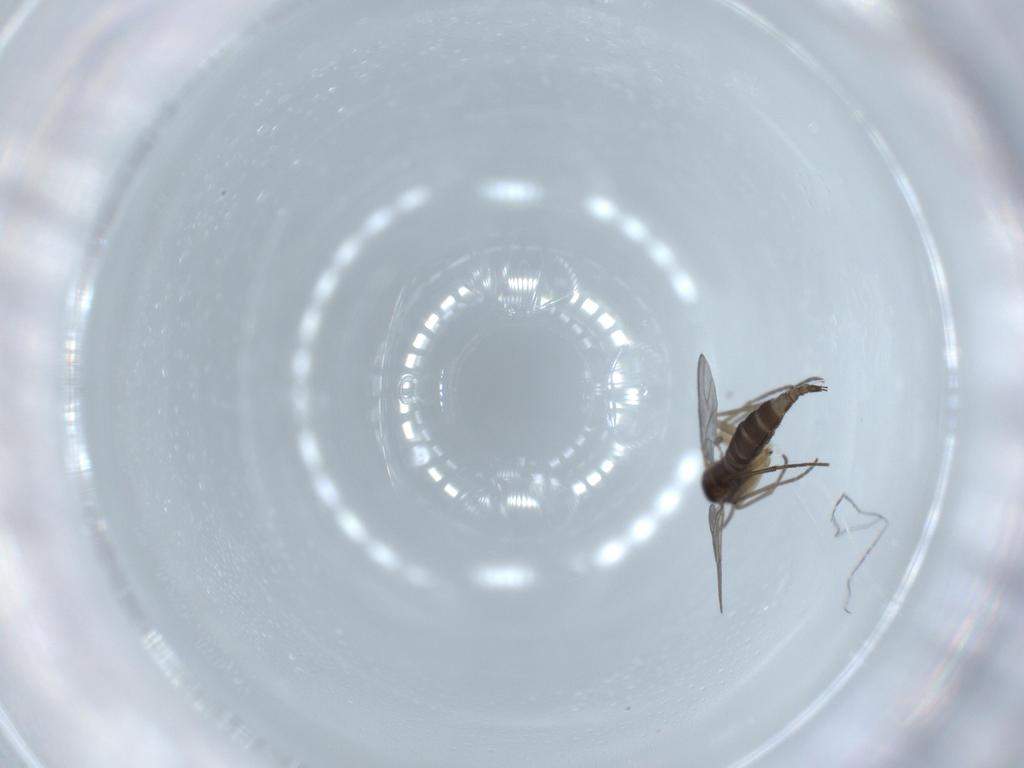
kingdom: Animalia
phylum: Arthropoda
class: Insecta
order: Diptera
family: Sciaridae
